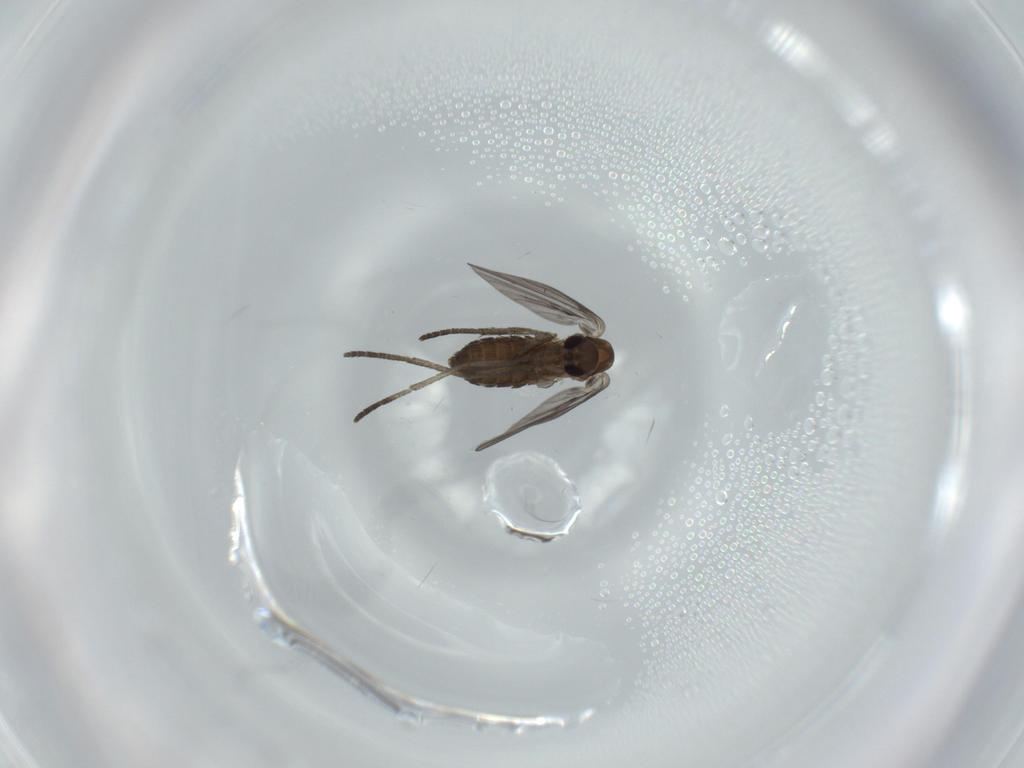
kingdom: Animalia
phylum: Arthropoda
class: Insecta
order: Diptera
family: Psychodidae
